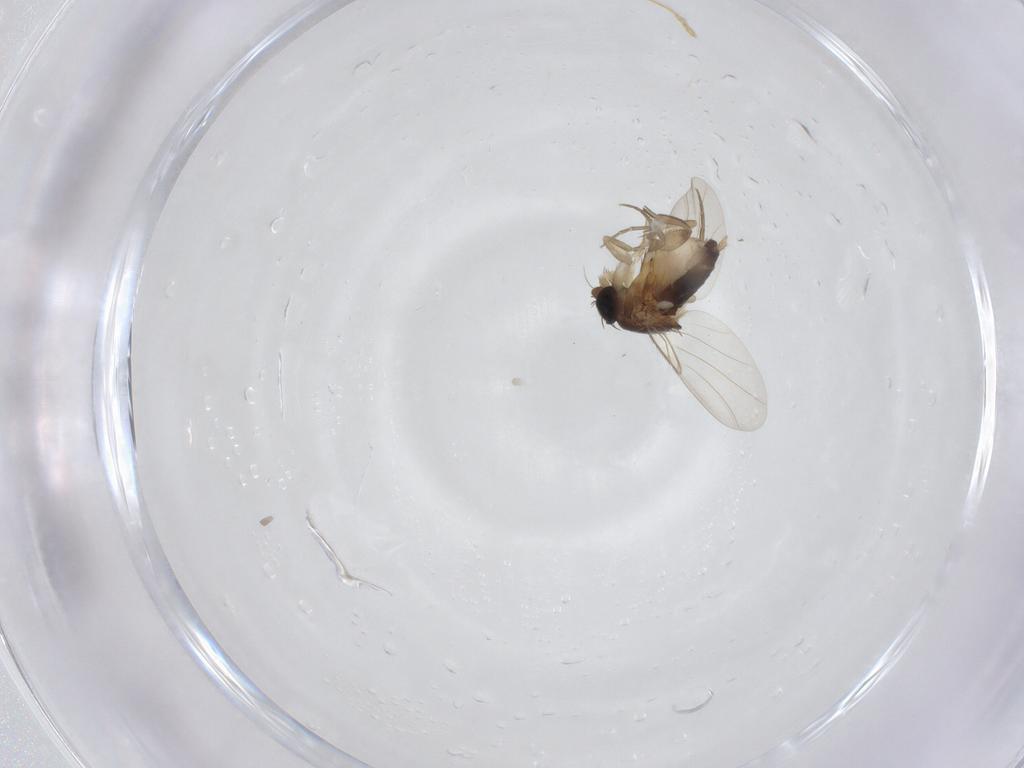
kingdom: Animalia
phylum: Arthropoda
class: Insecta
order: Diptera
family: Phoridae
